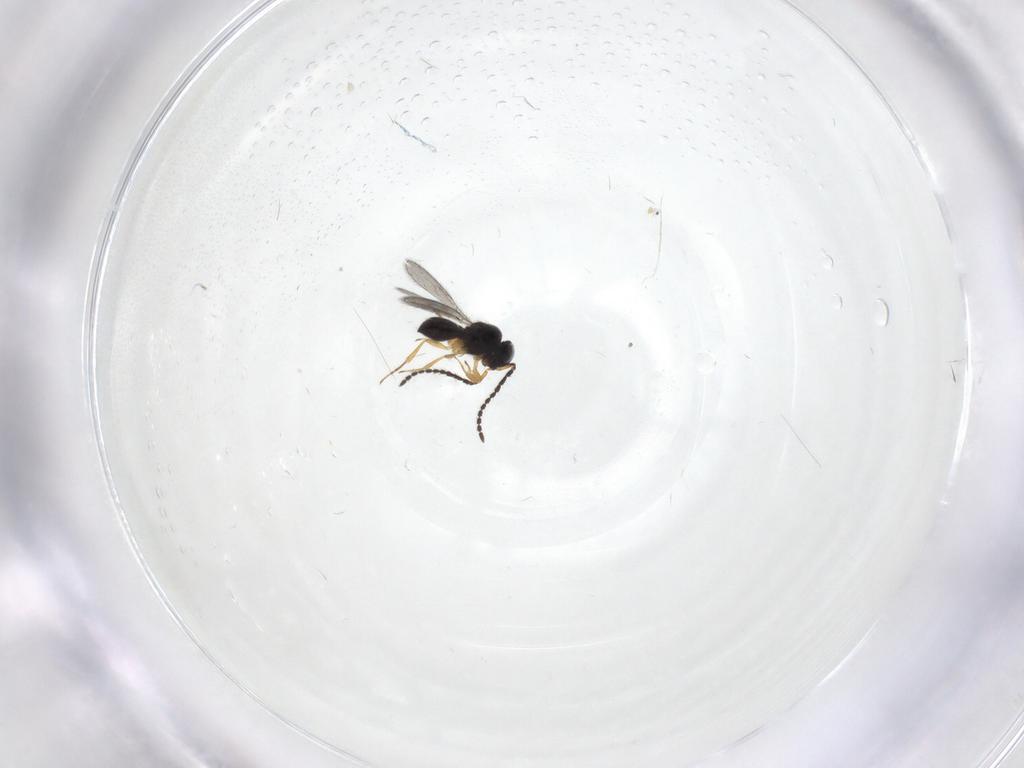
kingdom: Animalia
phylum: Arthropoda
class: Insecta
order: Hymenoptera
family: Scelionidae
